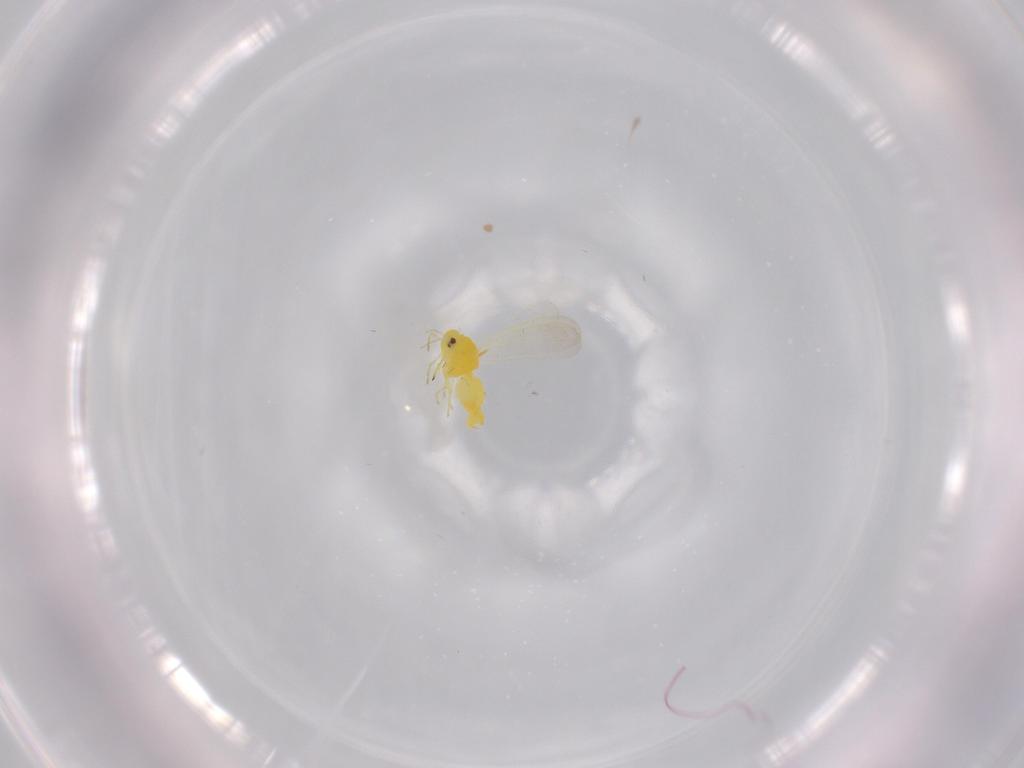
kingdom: Animalia
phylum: Arthropoda
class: Insecta
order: Hemiptera
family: Aleyrodidae
